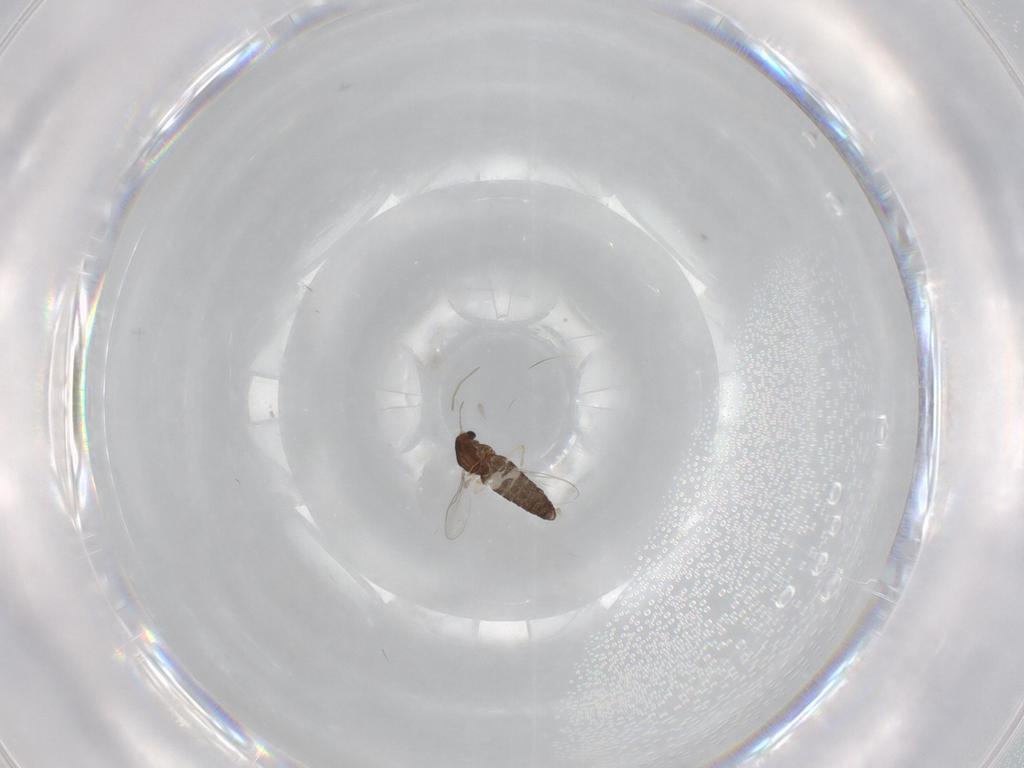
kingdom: Animalia
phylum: Arthropoda
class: Insecta
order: Diptera
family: Chironomidae
